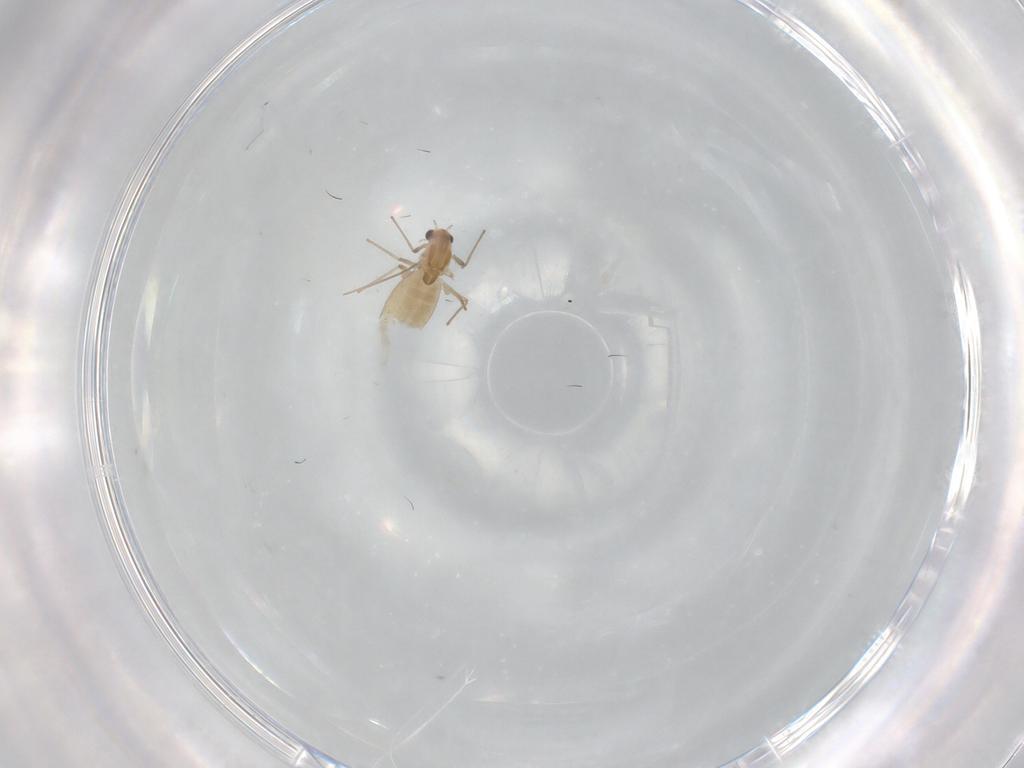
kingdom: Animalia
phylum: Arthropoda
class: Insecta
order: Diptera
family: Chironomidae
